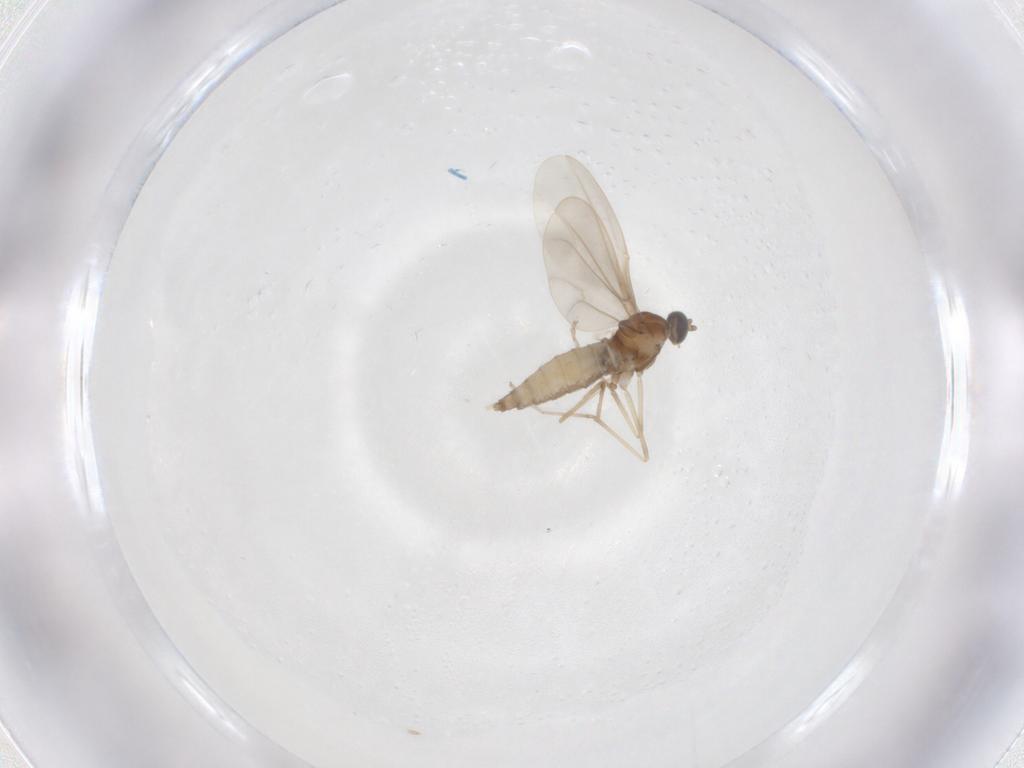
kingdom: Animalia
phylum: Arthropoda
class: Insecta
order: Diptera
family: Cecidomyiidae
